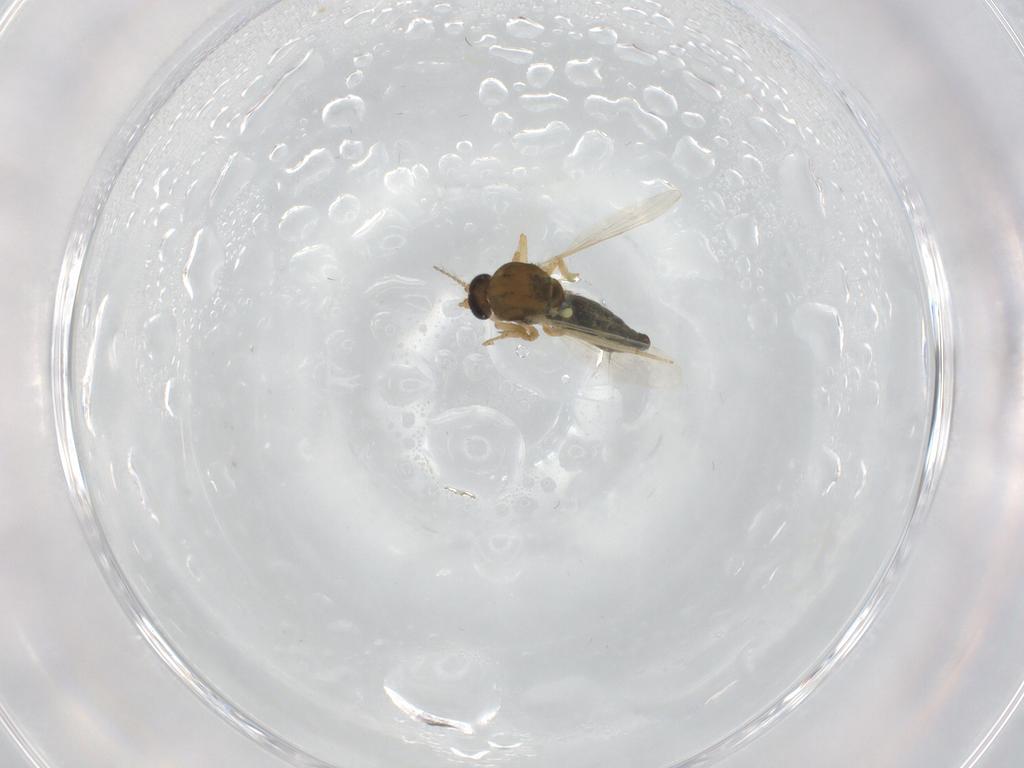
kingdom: Animalia
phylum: Arthropoda
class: Insecta
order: Diptera
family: Ceratopogonidae
